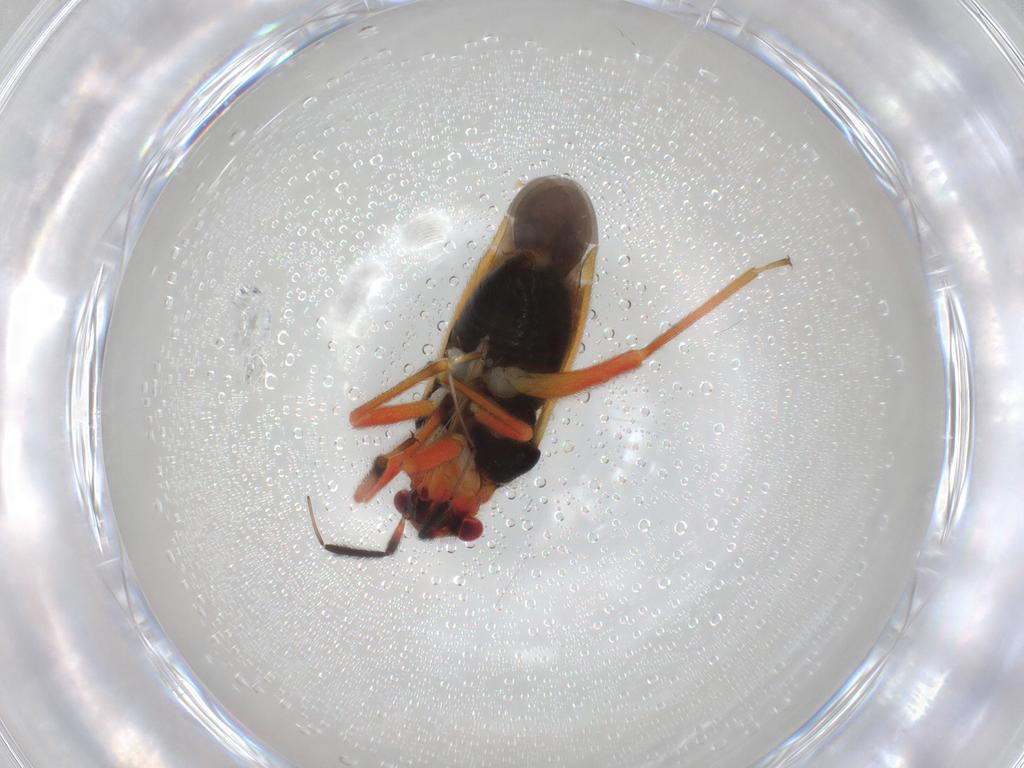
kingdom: Animalia
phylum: Arthropoda
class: Insecta
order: Hemiptera
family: Miridae
